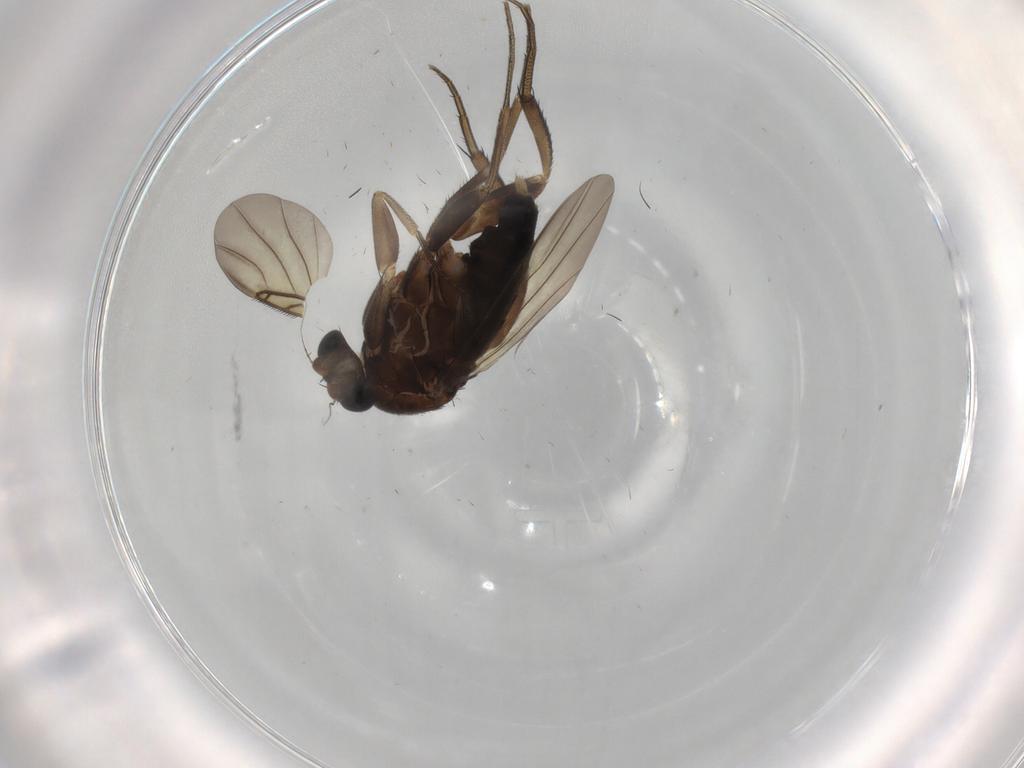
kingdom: Animalia
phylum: Arthropoda
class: Insecta
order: Diptera
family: Phoridae
